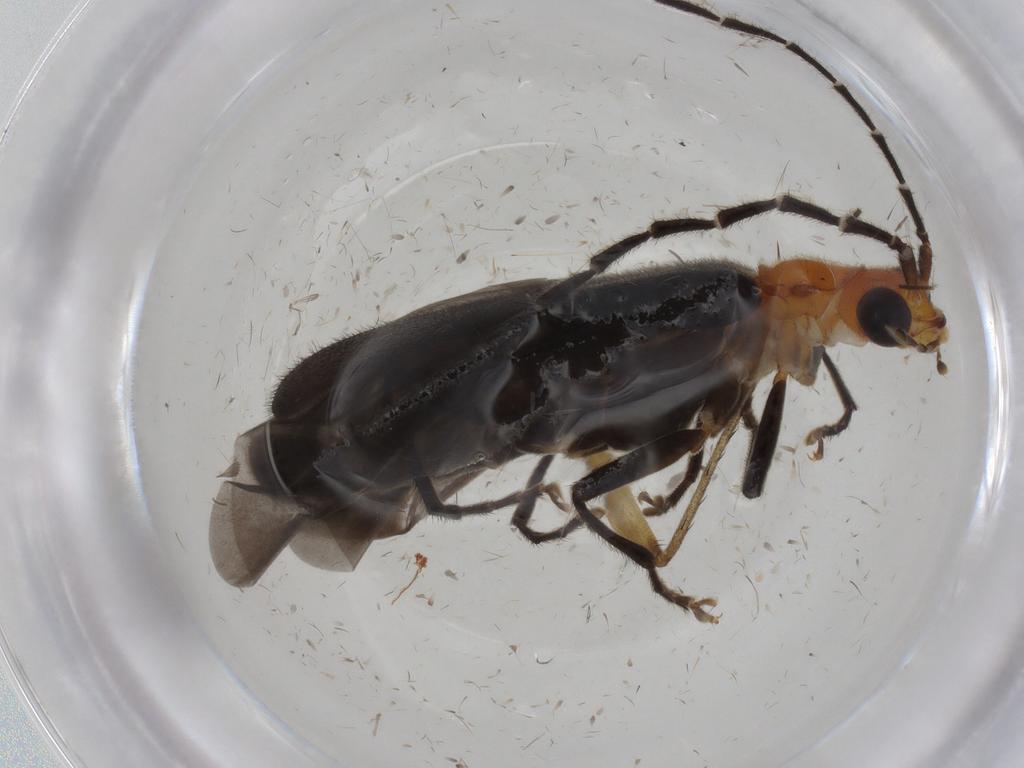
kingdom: Animalia
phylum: Arthropoda
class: Insecta
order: Coleoptera
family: Cantharidae
